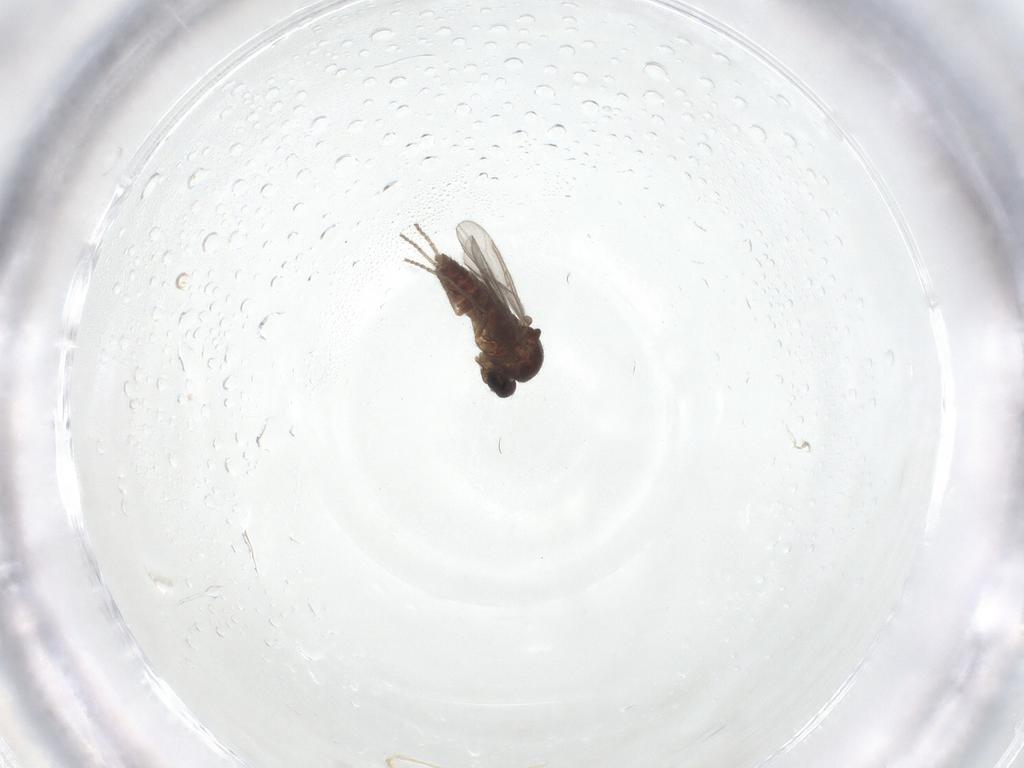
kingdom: Animalia
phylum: Arthropoda
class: Insecta
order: Diptera
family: Ceratopogonidae
